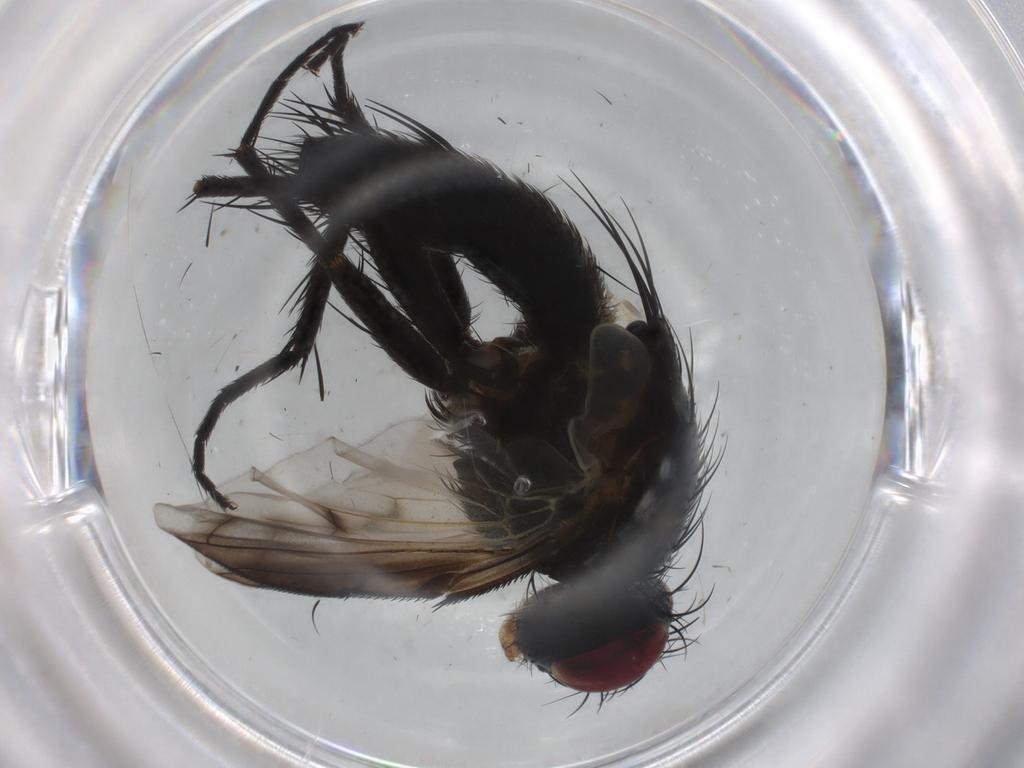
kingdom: Animalia
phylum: Arthropoda
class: Insecta
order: Diptera
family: Tachinidae
